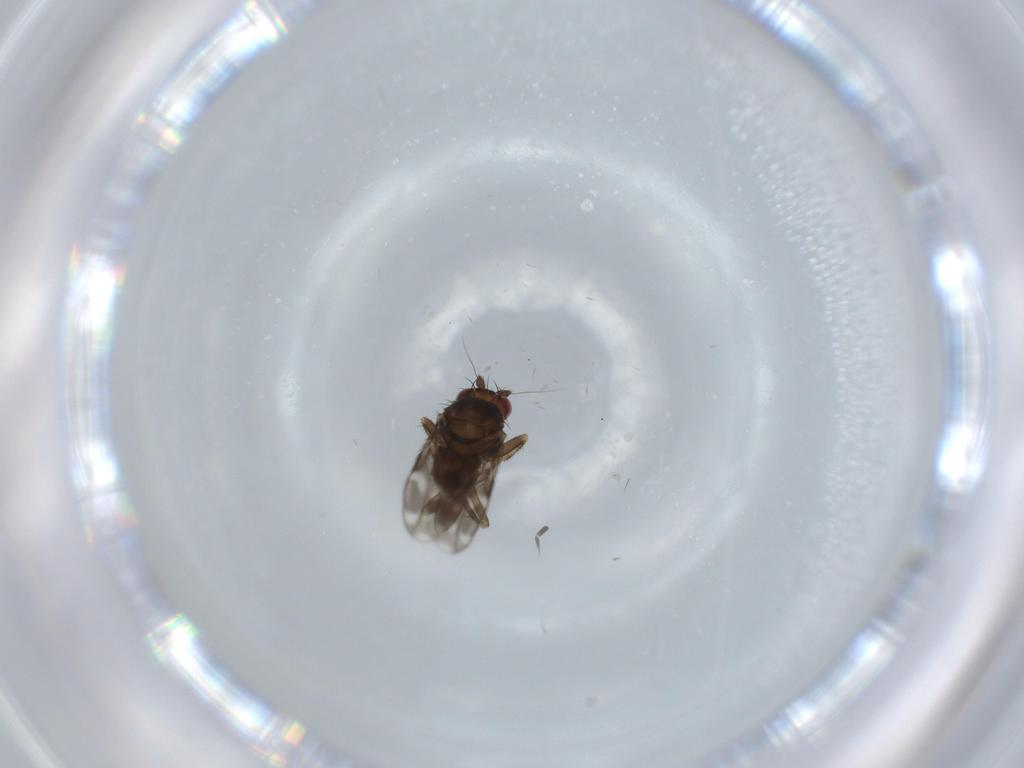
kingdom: Animalia
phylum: Arthropoda
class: Insecta
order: Diptera
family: Sphaeroceridae
